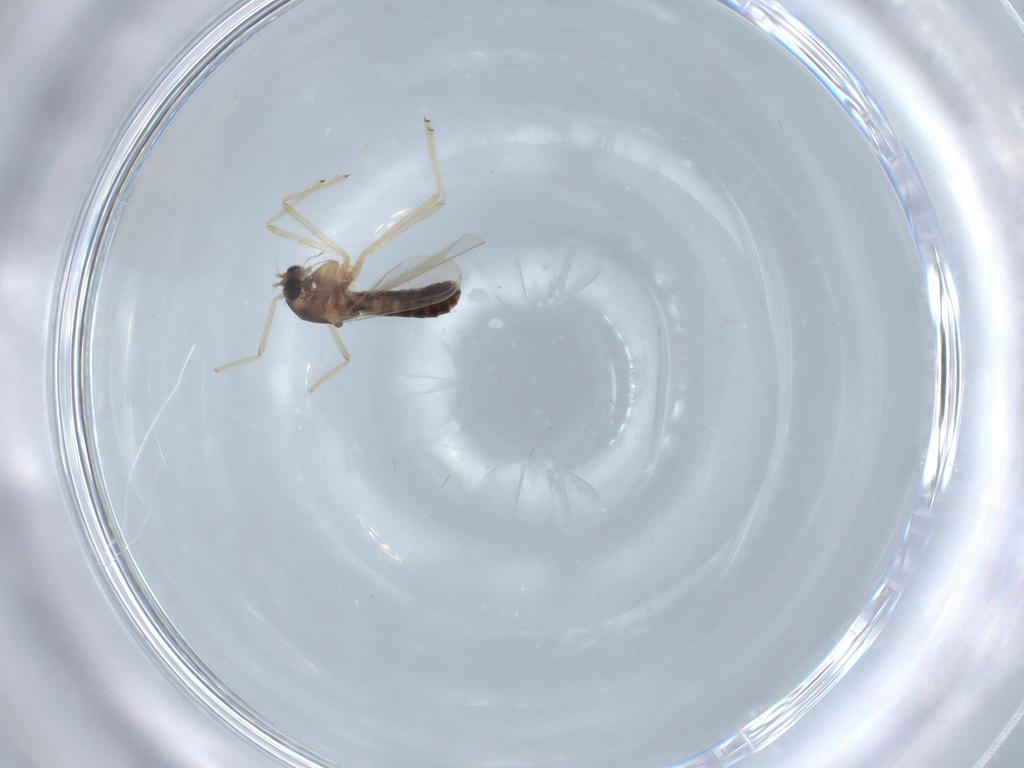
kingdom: Animalia
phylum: Arthropoda
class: Insecta
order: Diptera
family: Chironomidae
